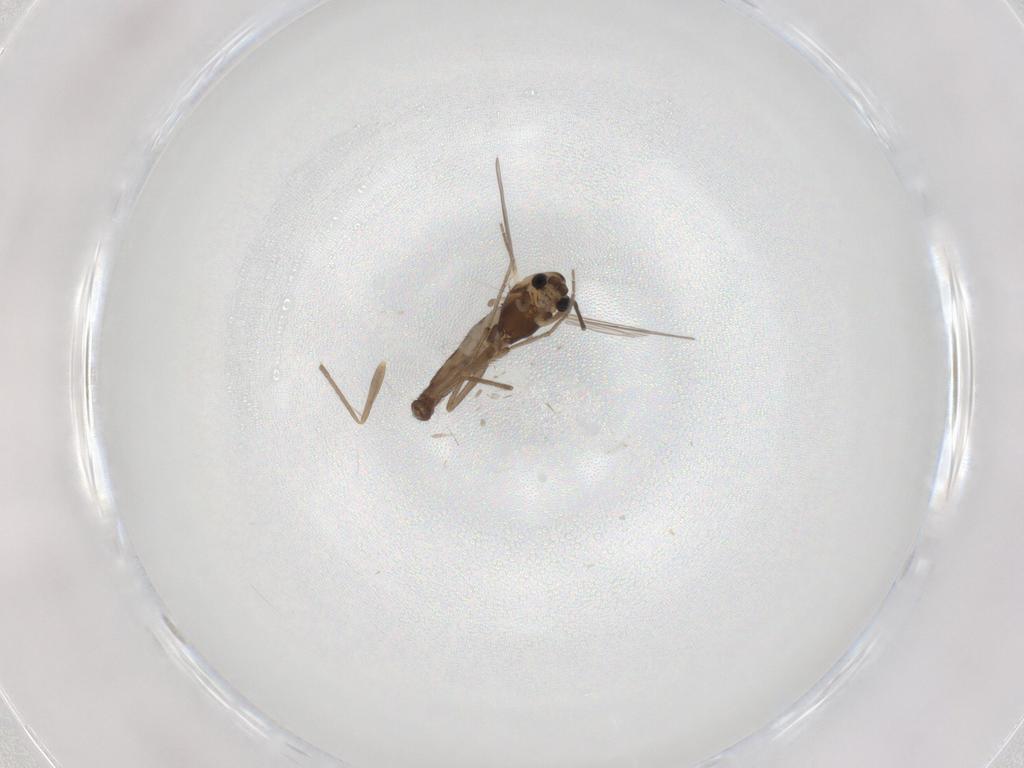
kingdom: Animalia
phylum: Arthropoda
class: Insecta
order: Diptera
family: Chironomidae
